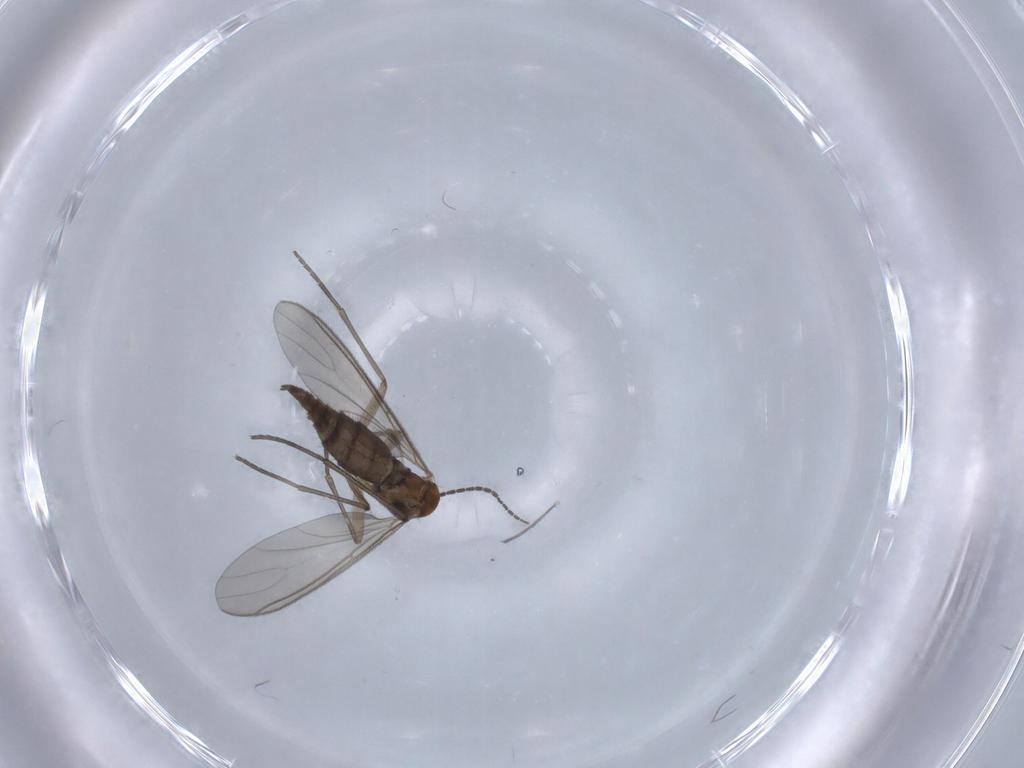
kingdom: Animalia
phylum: Arthropoda
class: Insecta
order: Diptera
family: Sciaridae
